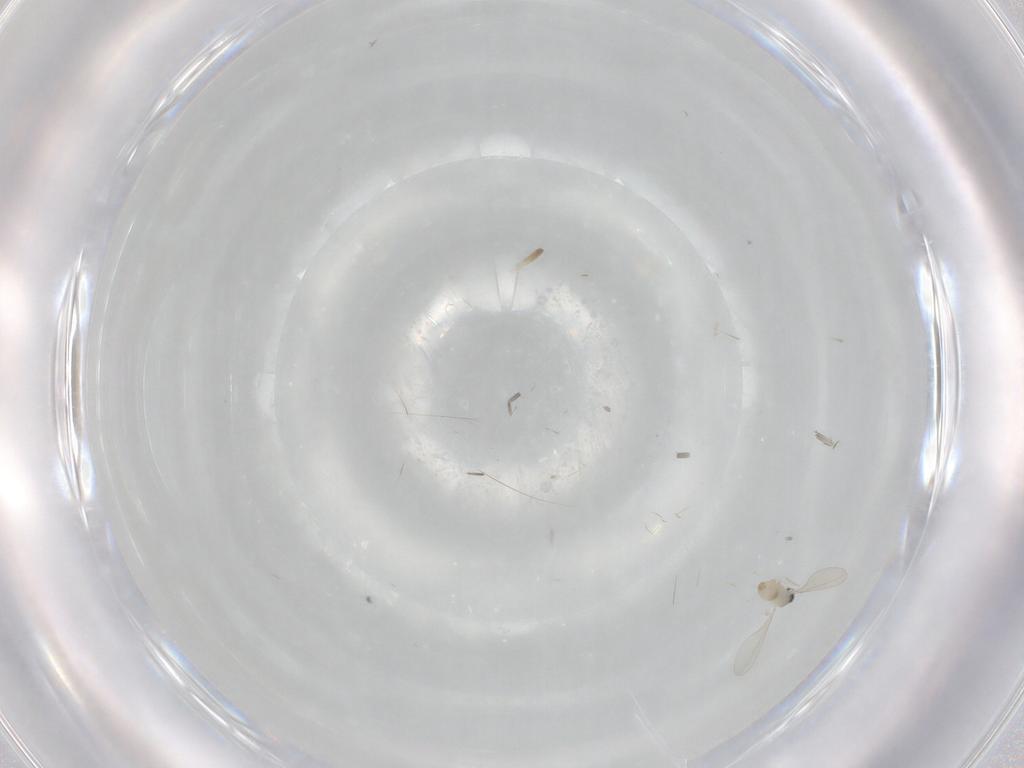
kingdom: Animalia
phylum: Arthropoda
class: Insecta
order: Diptera
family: Cecidomyiidae
